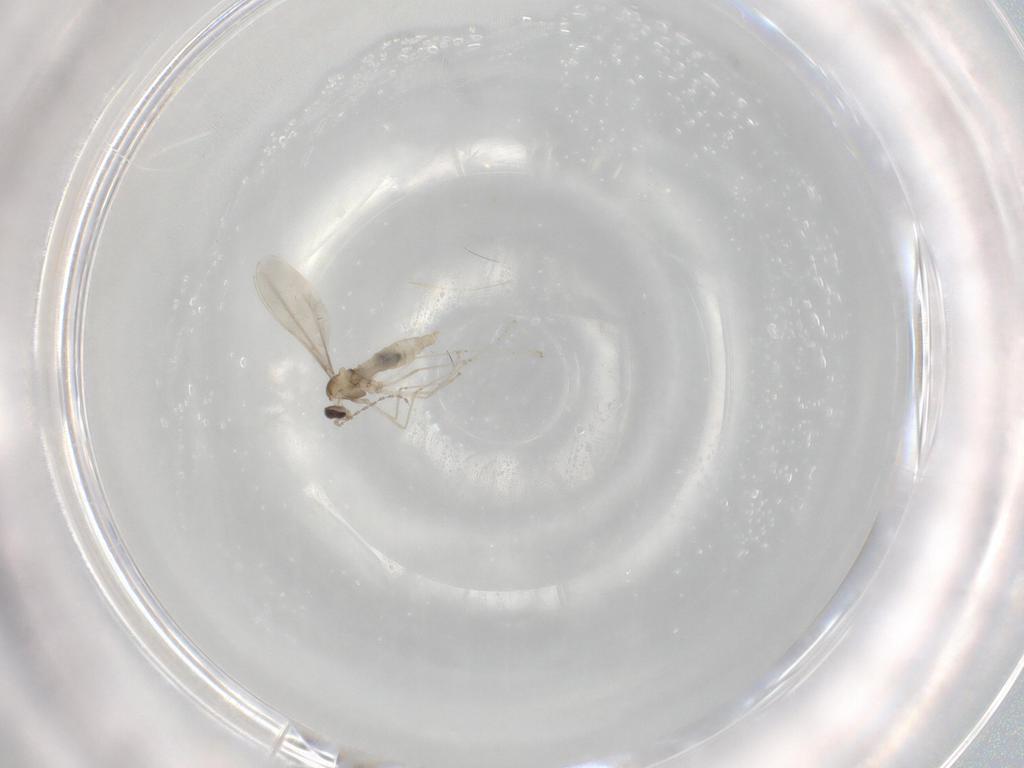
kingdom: Animalia
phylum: Arthropoda
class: Insecta
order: Diptera
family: Cecidomyiidae
